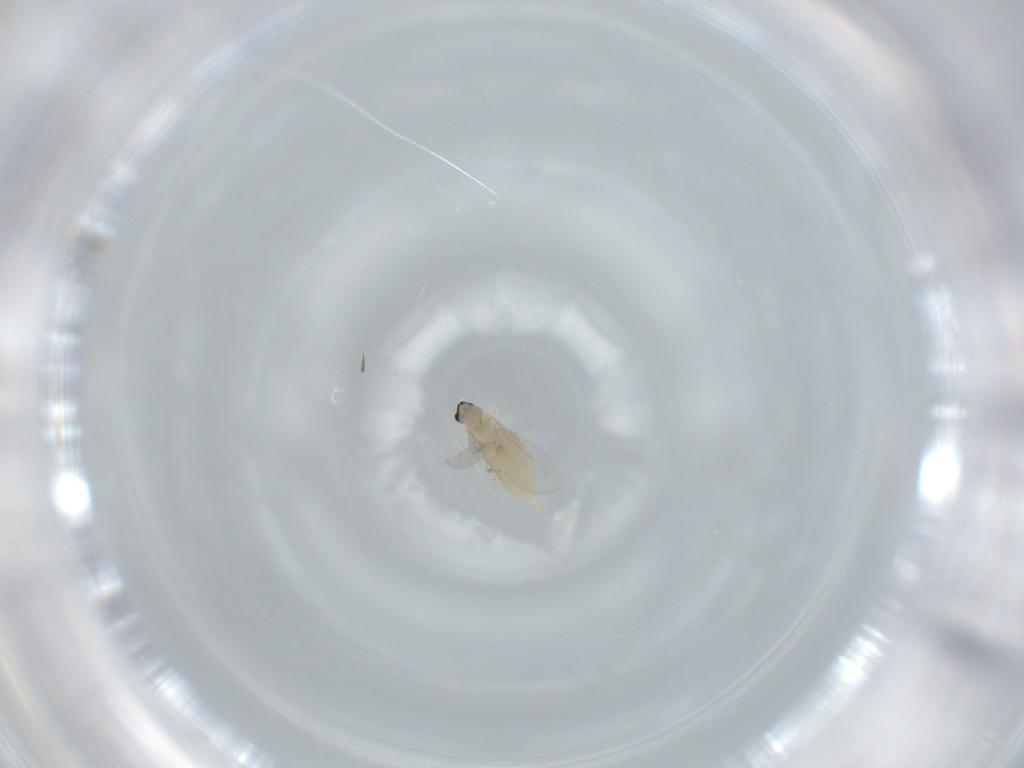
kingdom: Animalia
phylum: Arthropoda
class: Insecta
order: Diptera
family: Cecidomyiidae
